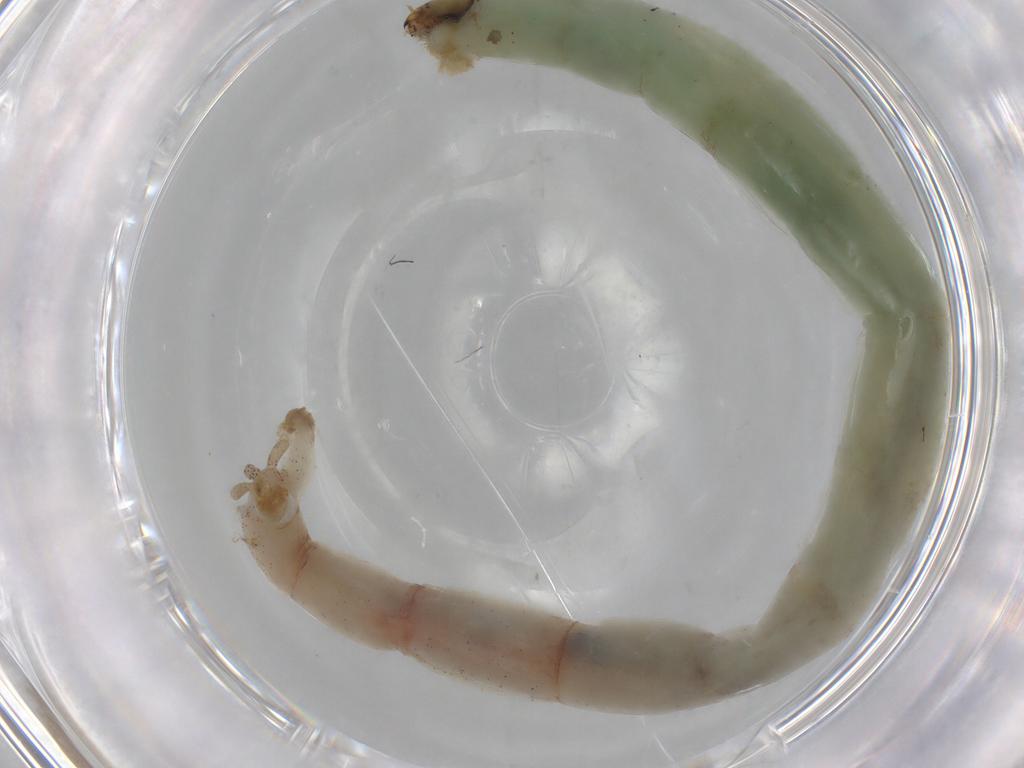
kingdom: Animalia
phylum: Arthropoda
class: Insecta
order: Diptera
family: Chironomidae
